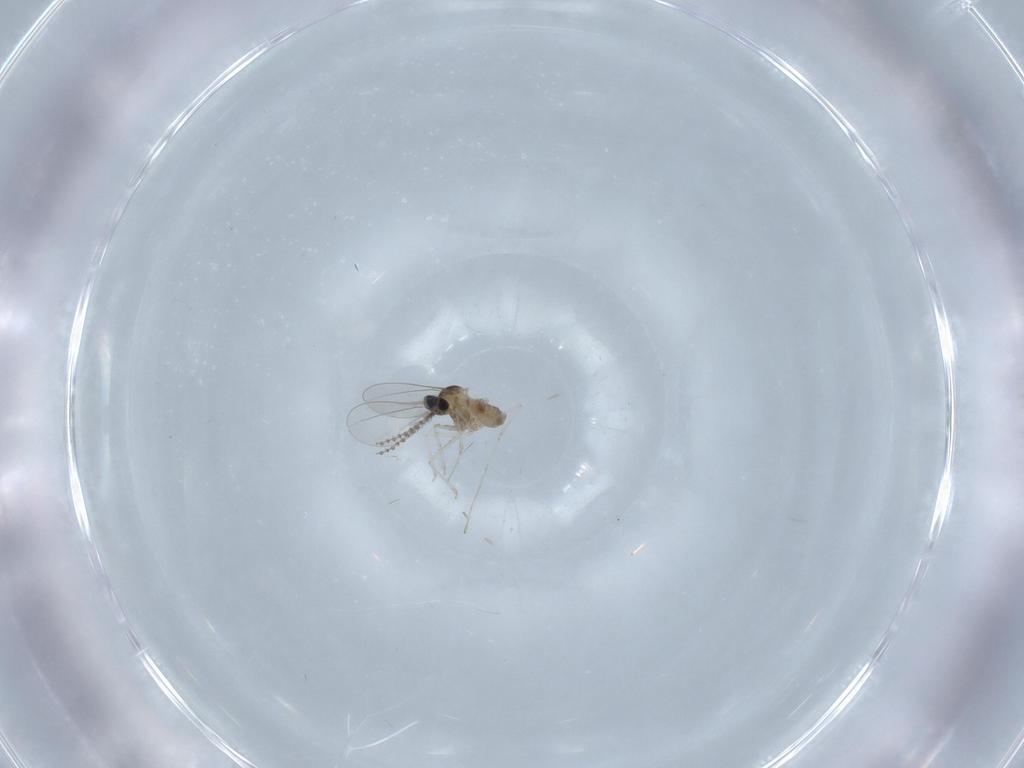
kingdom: Animalia
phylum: Arthropoda
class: Insecta
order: Diptera
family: Cecidomyiidae
